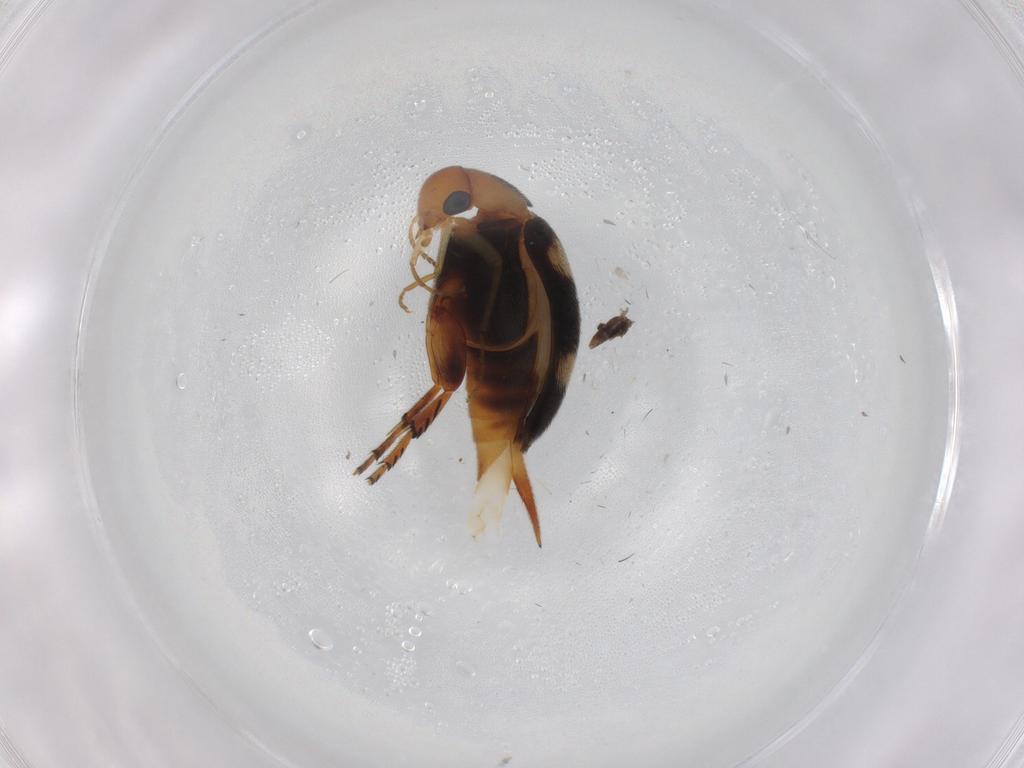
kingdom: Animalia
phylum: Arthropoda
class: Insecta
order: Coleoptera
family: Mordellidae
